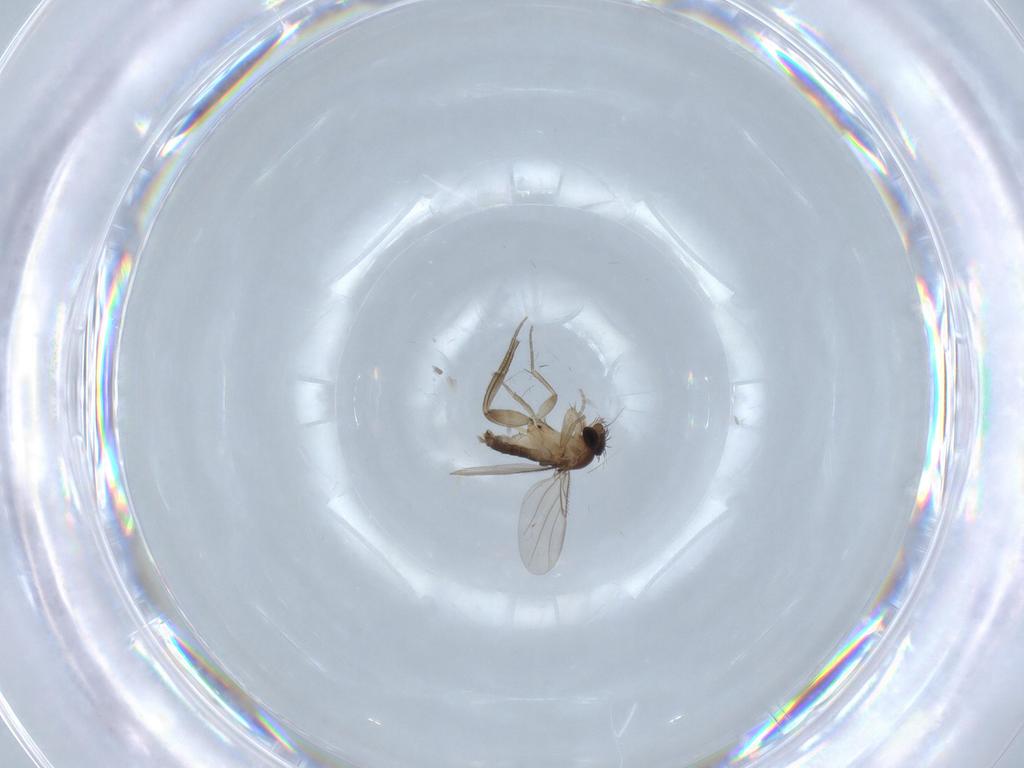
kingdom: Animalia
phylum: Arthropoda
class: Insecta
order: Diptera
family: Phoridae
